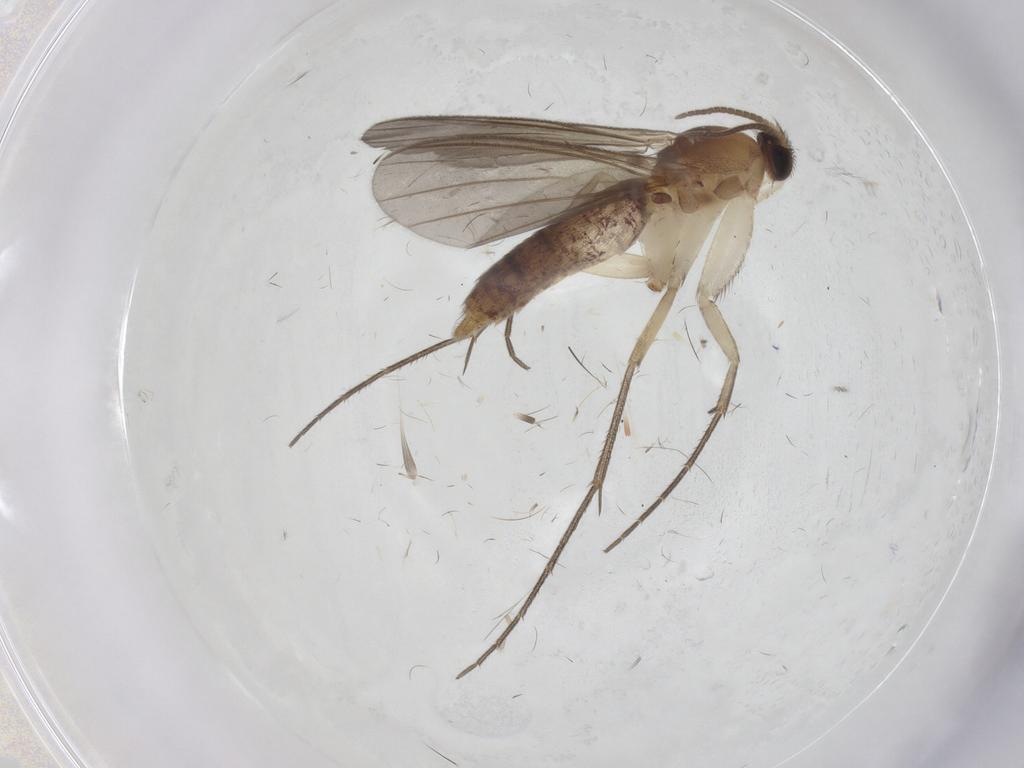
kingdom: Animalia
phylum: Arthropoda
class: Insecta
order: Diptera
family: Mycetophilidae
